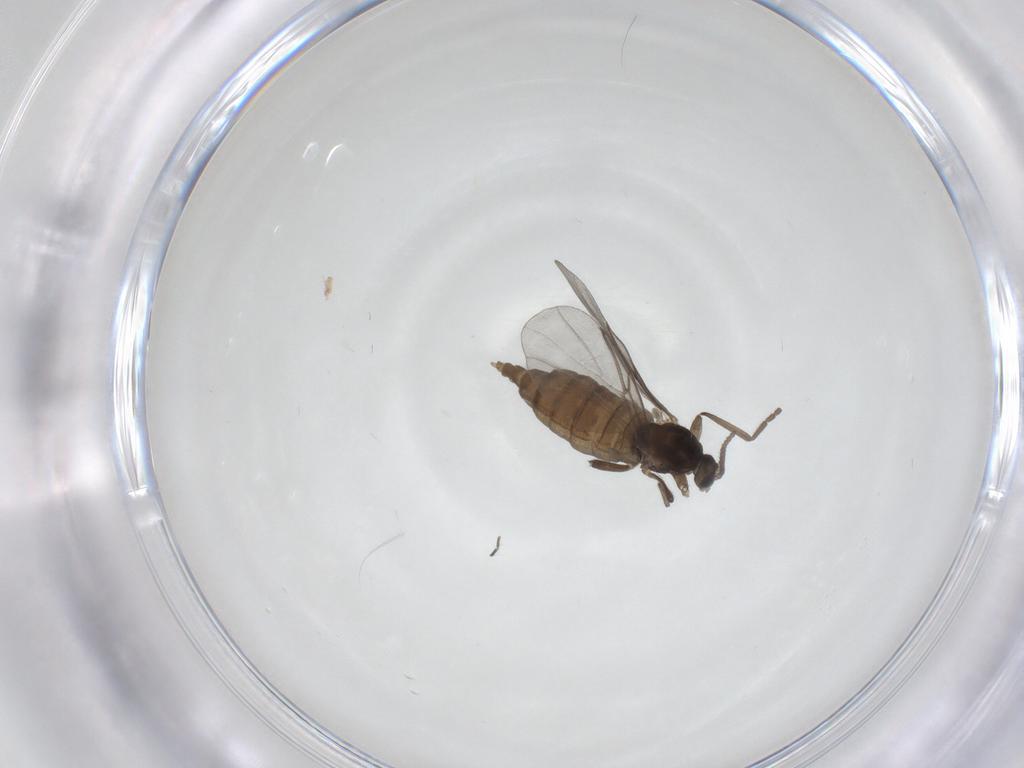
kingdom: Animalia
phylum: Arthropoda
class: Insecta
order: Diptera
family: Cecidomyiidae
